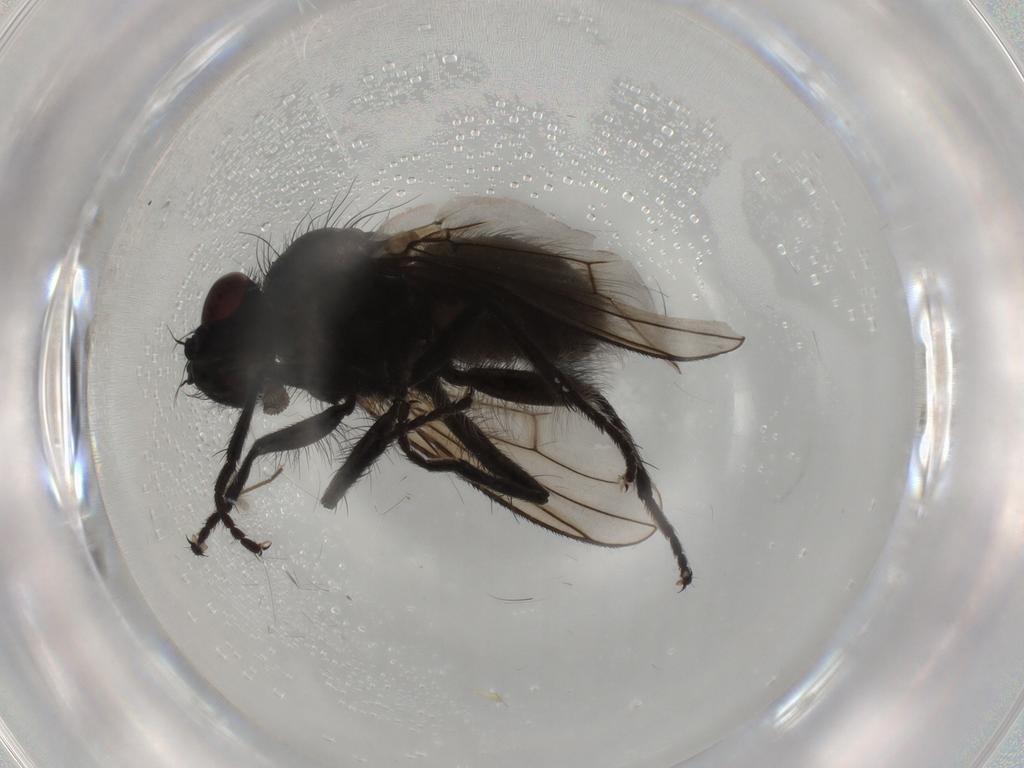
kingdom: Animalia
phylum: Arthropoda
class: Insecta
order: Diptera
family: Muscidae
